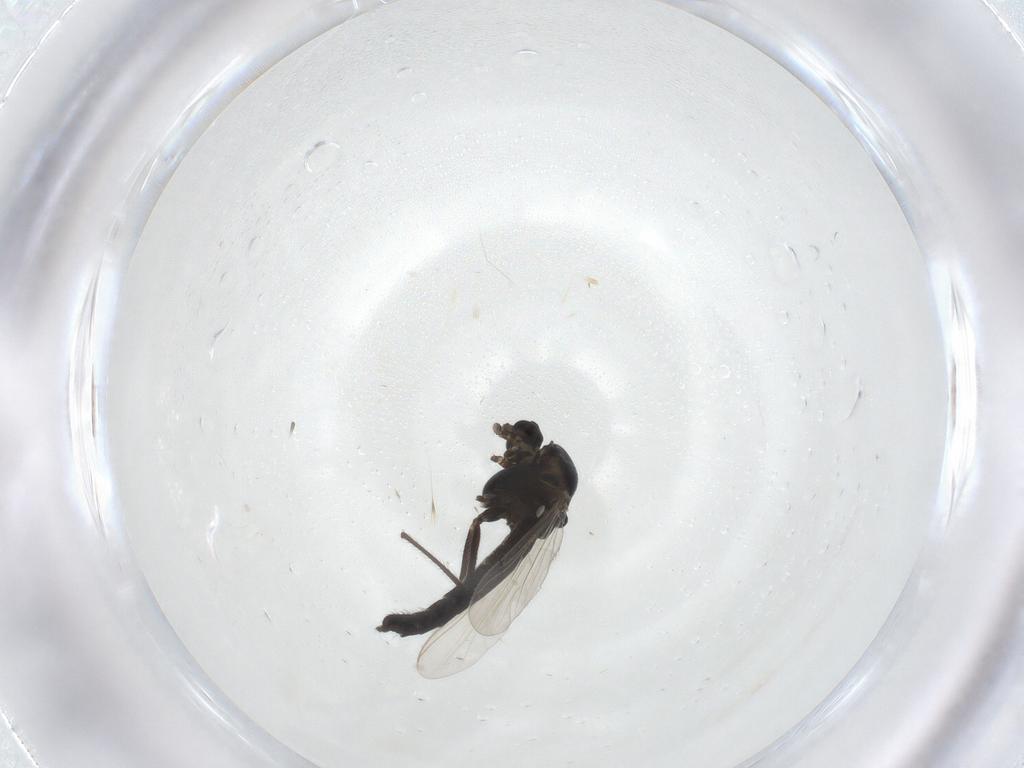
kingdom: Animalia
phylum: Arthropoda
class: Insecta
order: Diptera
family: Chironomidae
